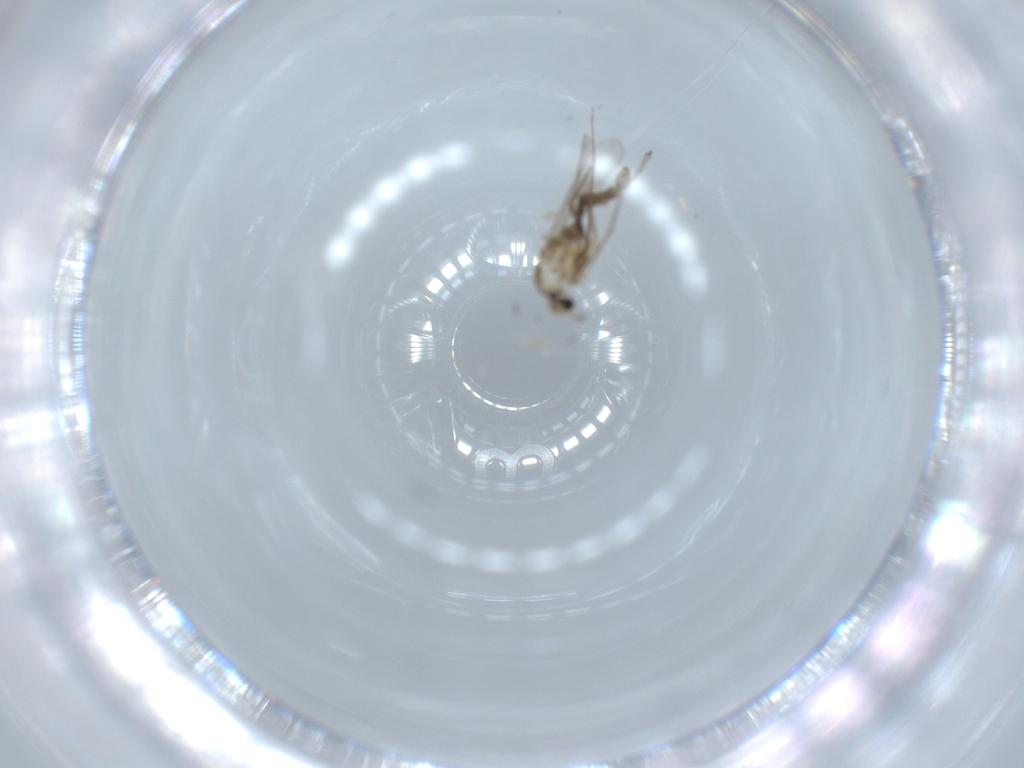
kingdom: Animalia
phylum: Arthropoda
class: Insecta
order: Diptera
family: Chironomidae
